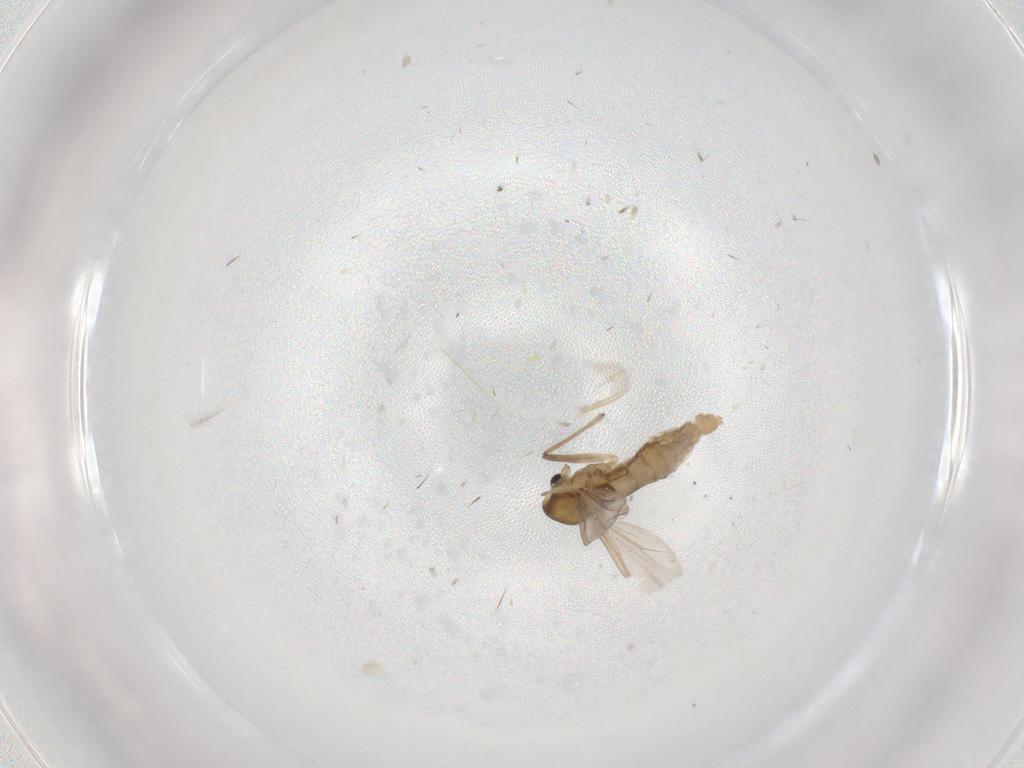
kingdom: Animalia
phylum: Arthropoda
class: Insecta
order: Diptera
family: Chironomidae
